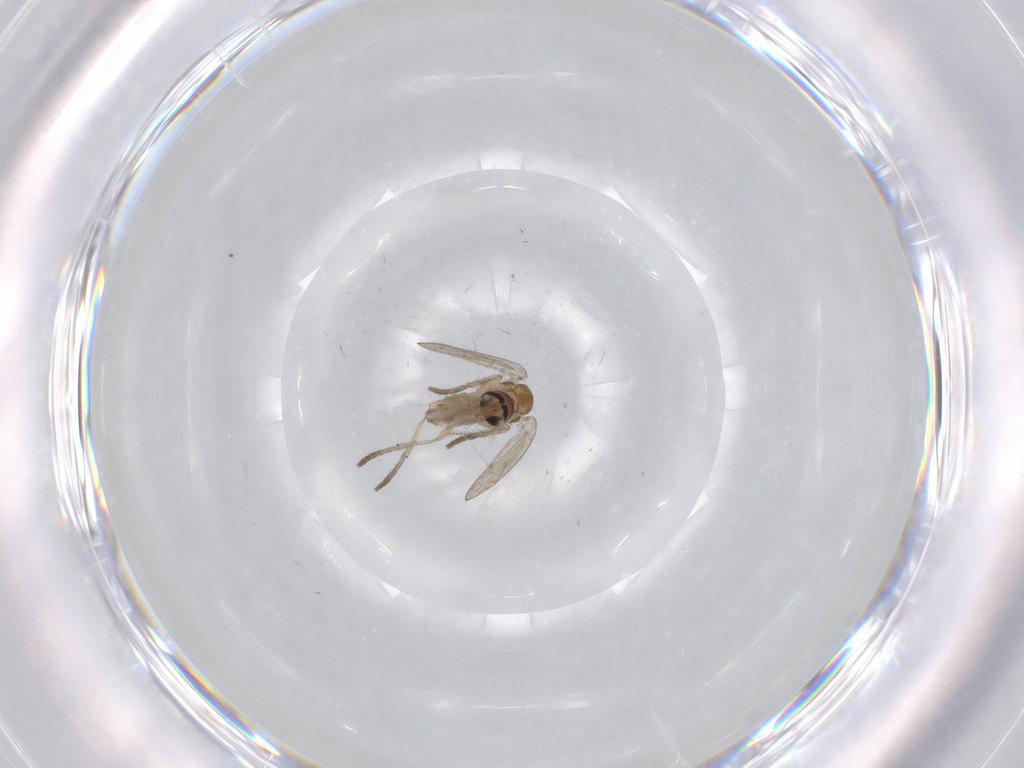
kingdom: Animalia
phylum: Arthropoda
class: Insecta
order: Diptera
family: Psychodidae
